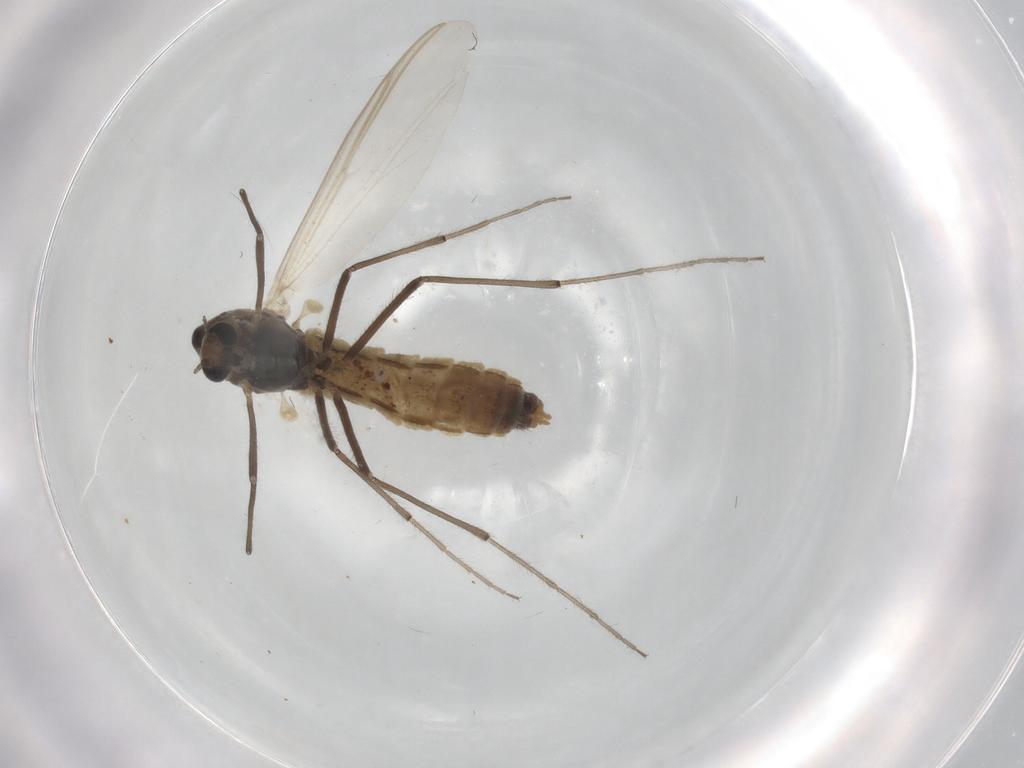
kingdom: Animalia
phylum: Arthropoda
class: Insecta
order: Diptera
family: Chironomidae
